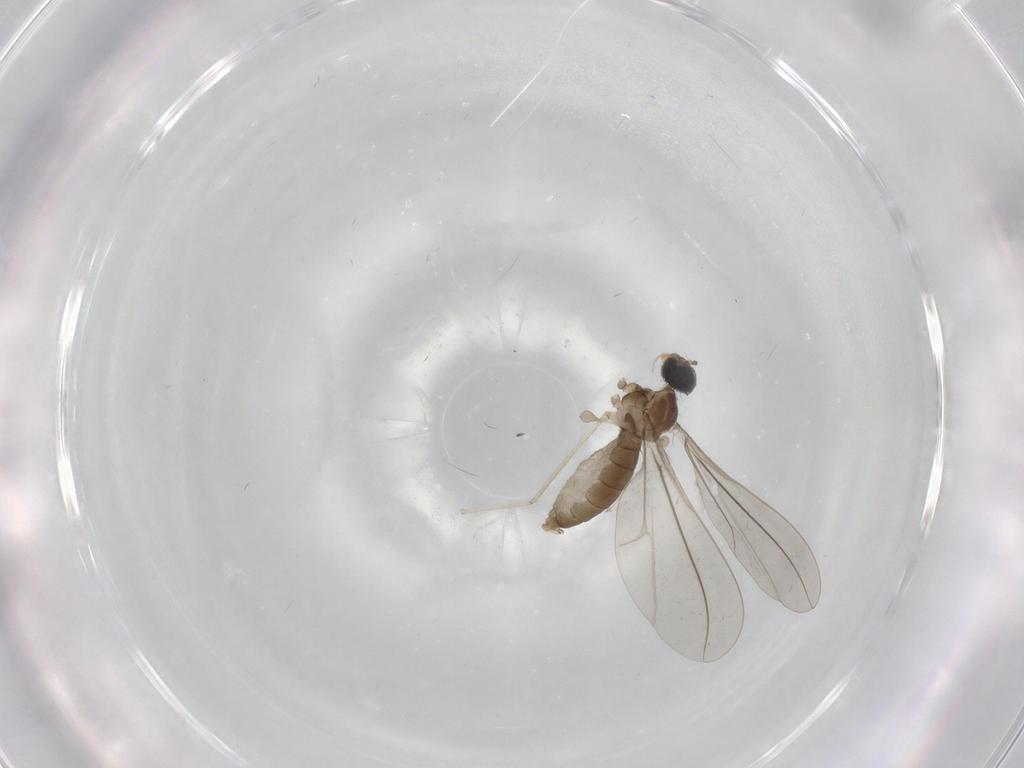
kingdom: Animalia
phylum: Arthropoda
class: Insecta
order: Diptera
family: Cecidomyiidae
